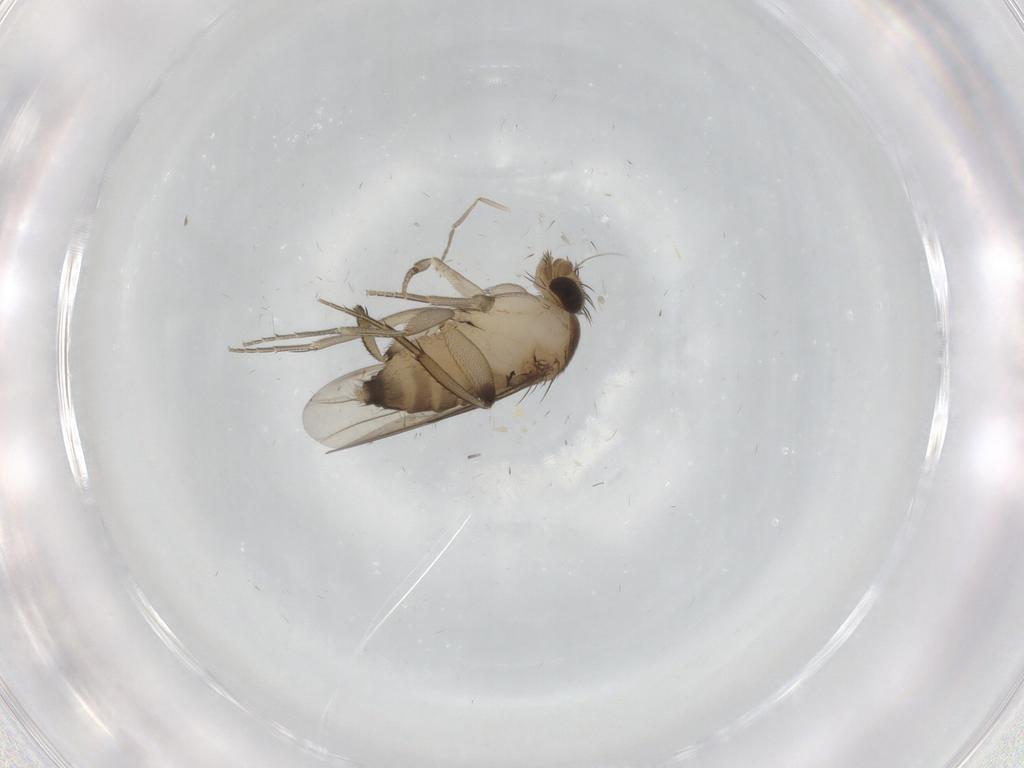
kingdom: Animalia
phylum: Arthropoda
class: Insecta
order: Diptera
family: Phoridae
